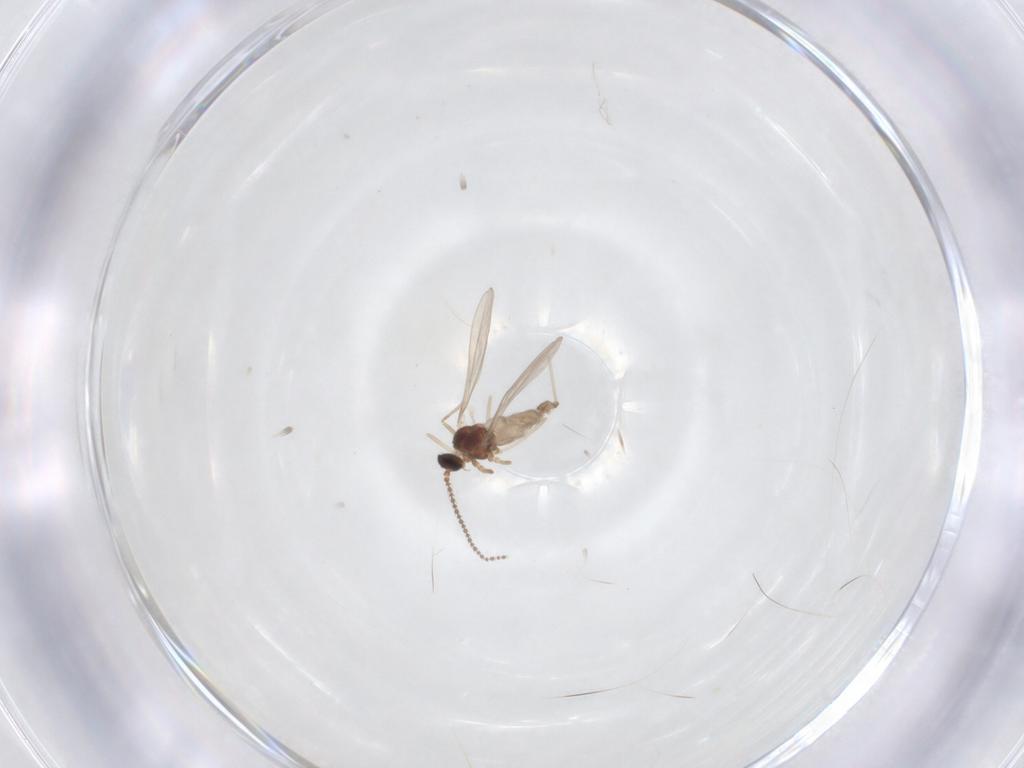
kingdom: Animalia
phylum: Arthropoda
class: Insecta
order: Diptera
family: Cecidomyiidae
